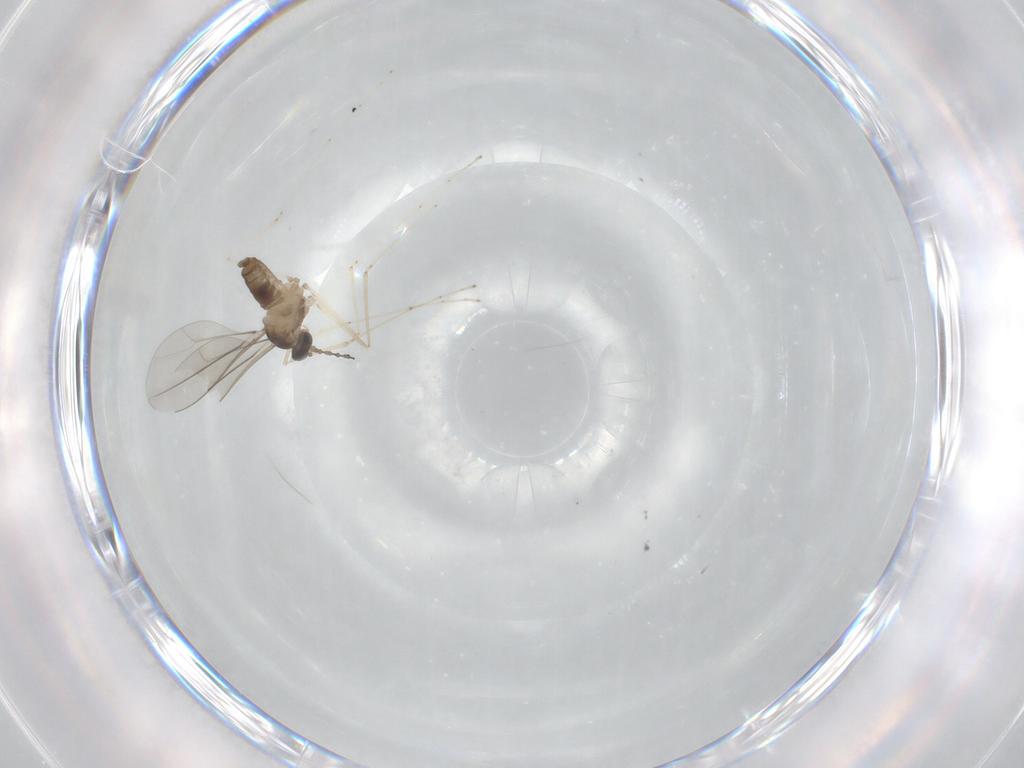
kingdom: Animalia
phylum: Arthropoda
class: Insecta
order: Diptera
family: Cecidomyiidae
